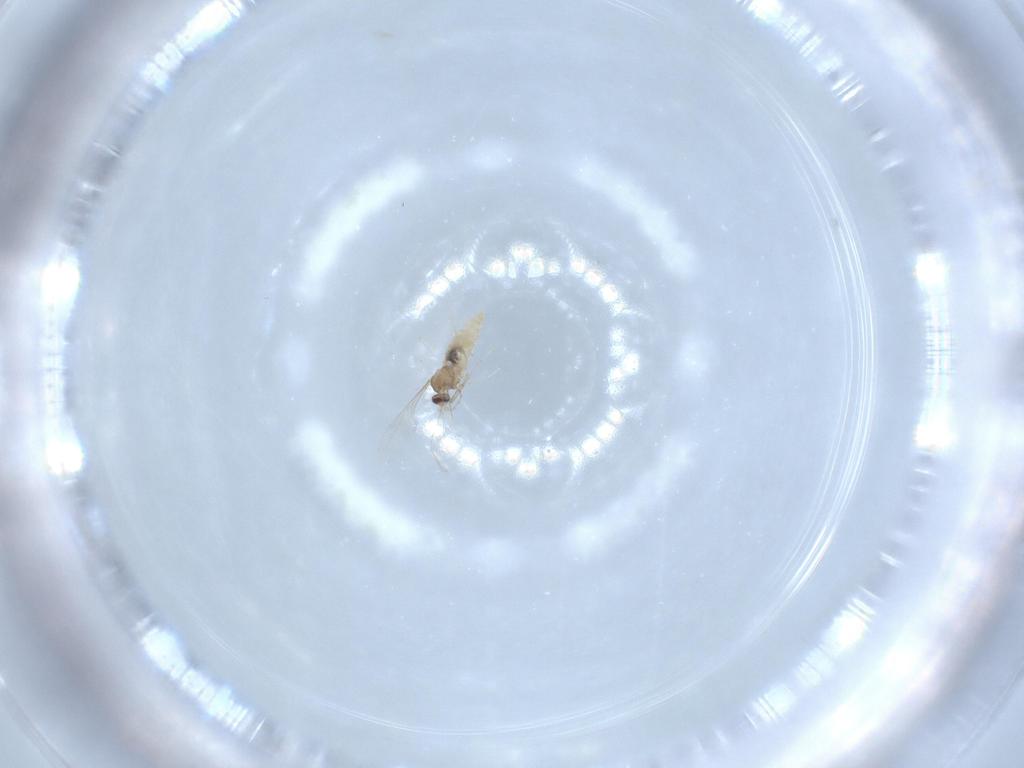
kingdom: Animalia
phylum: Arthropoda
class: Insecta
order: Diptera
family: Cecidomyiidae
